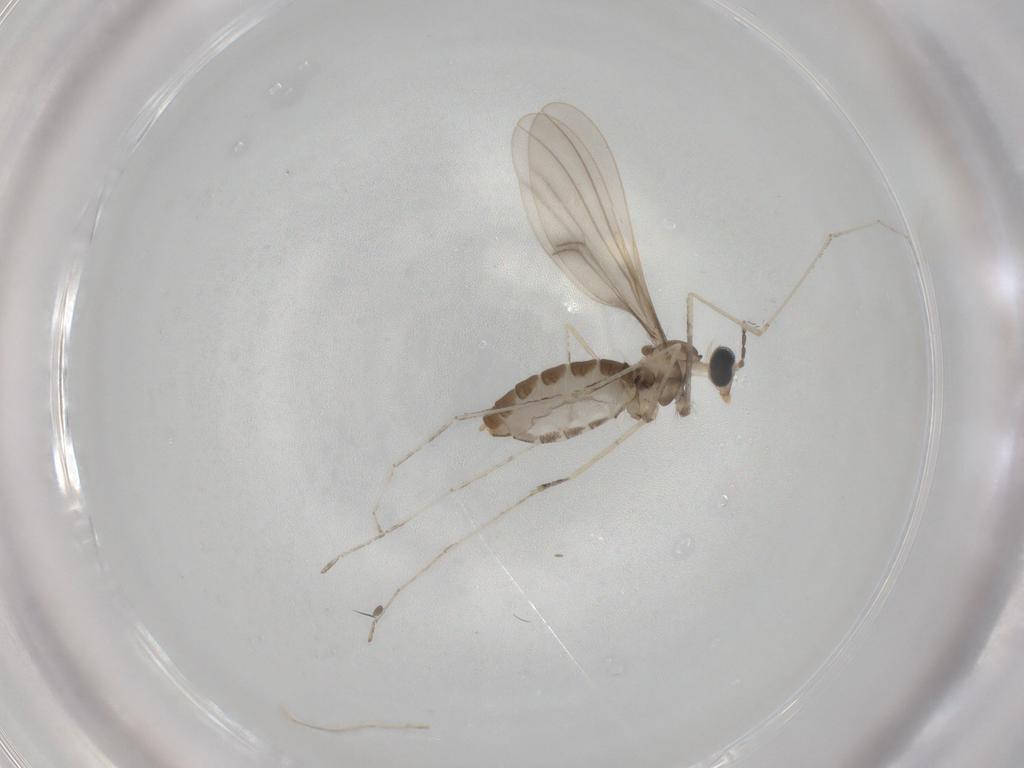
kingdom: Animalia
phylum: Arthropoda
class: Insecta
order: Diptera
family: Cecidomyiidae
